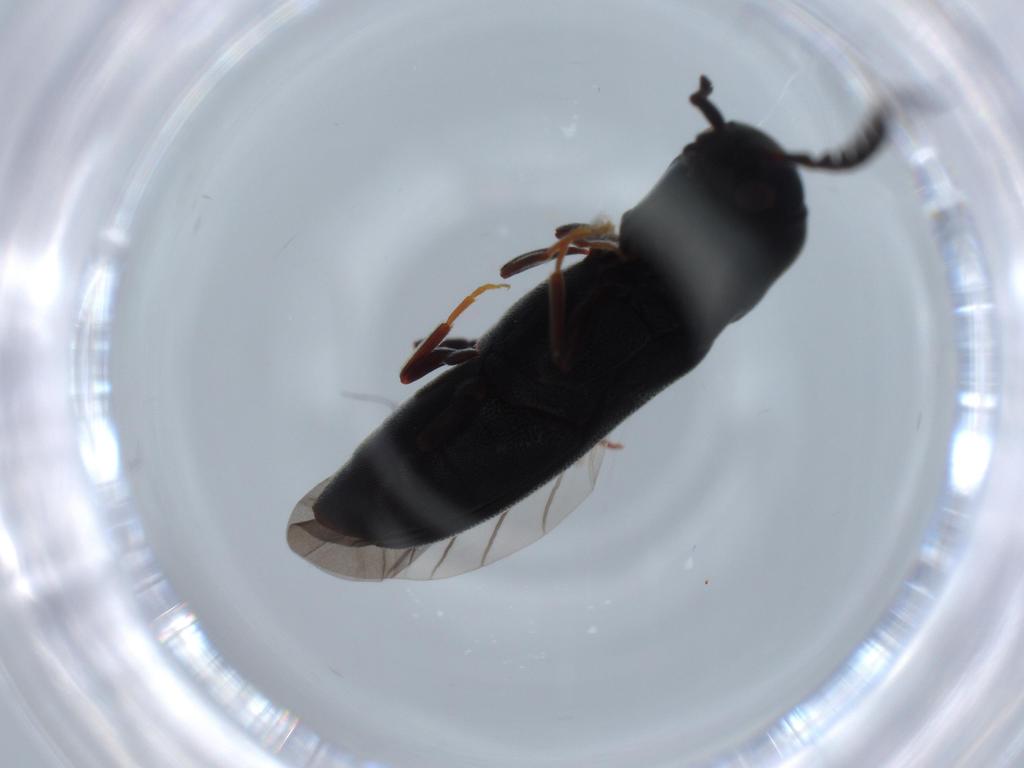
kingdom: Animalia
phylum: Arthropoda
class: Insecta
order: Coleoptera
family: Eucnemidae
